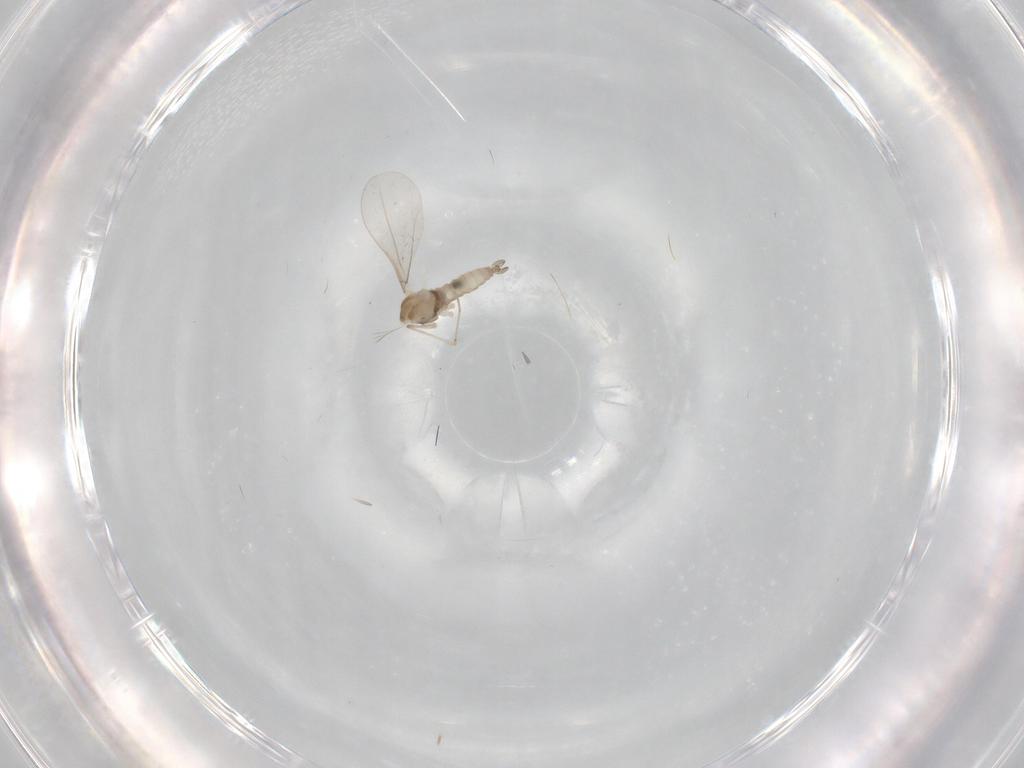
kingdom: Animalia
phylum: Arthropoda
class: Insecta
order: Diptera
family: Cecidomyiidae
